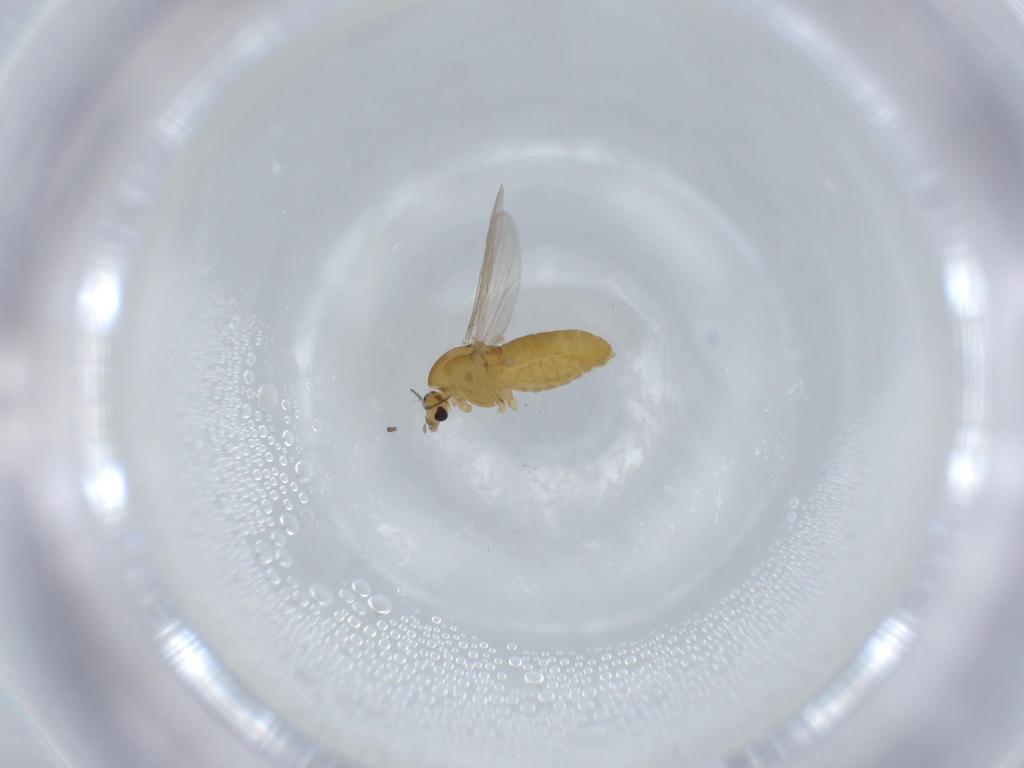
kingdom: Animalia
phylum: Arthropoda
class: Insecta
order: Diptera
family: Chironomidae
